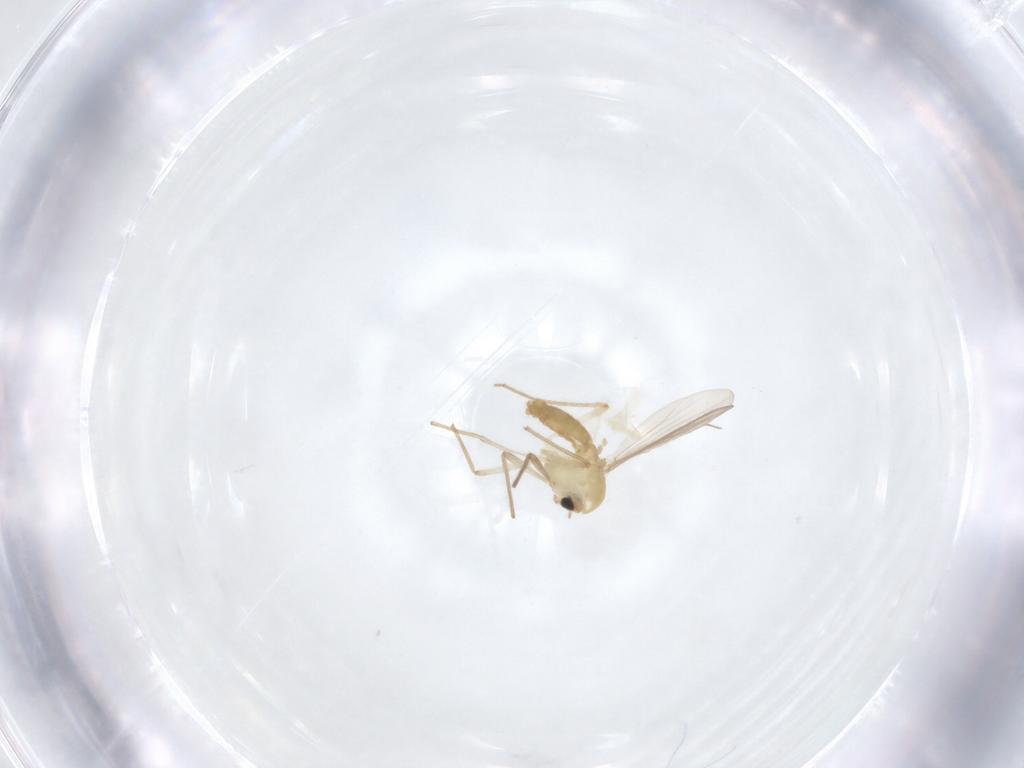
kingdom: Animalia
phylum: Arthropoda
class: Insecta
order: Diptera
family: Chironomidae
